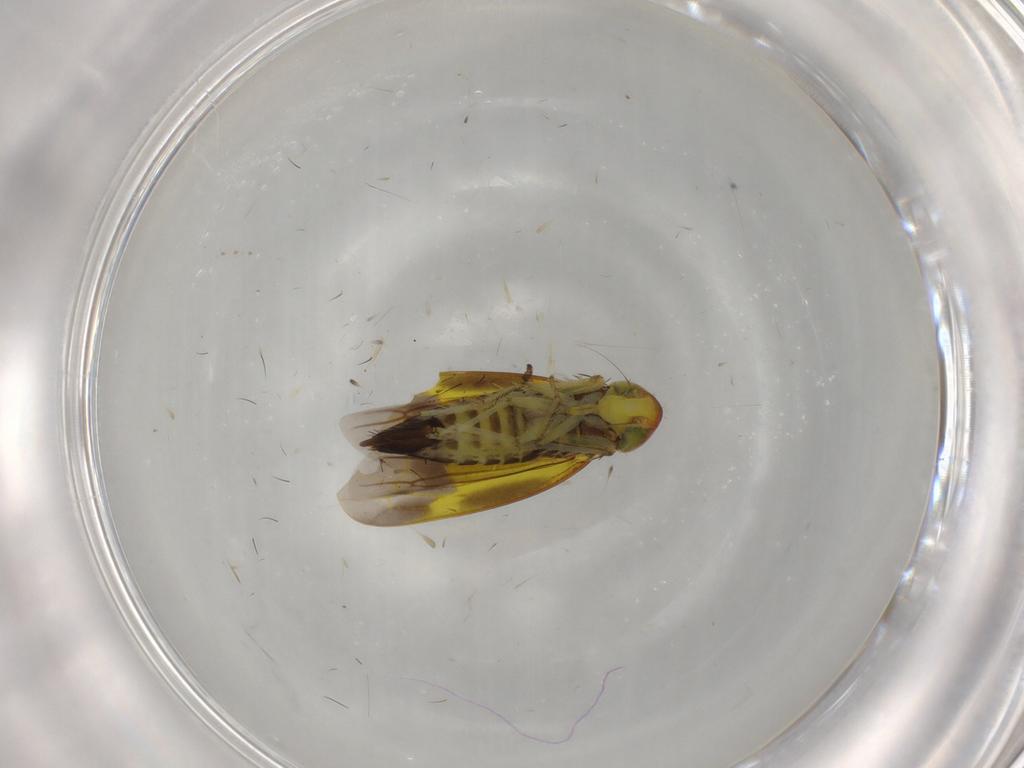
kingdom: Animalia
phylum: Arthropoda
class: Insecta
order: Hemiptera
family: Cicadellidae
